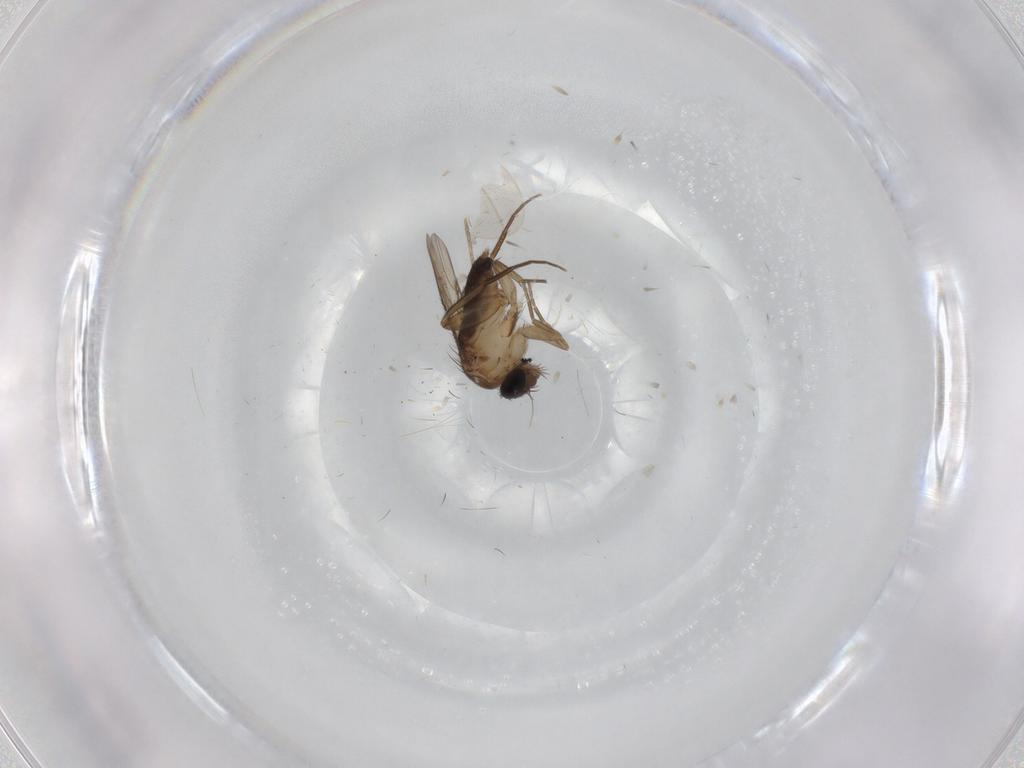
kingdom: Animalia
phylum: Arthropoda
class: Insecta
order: Diptera
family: Phoridae
